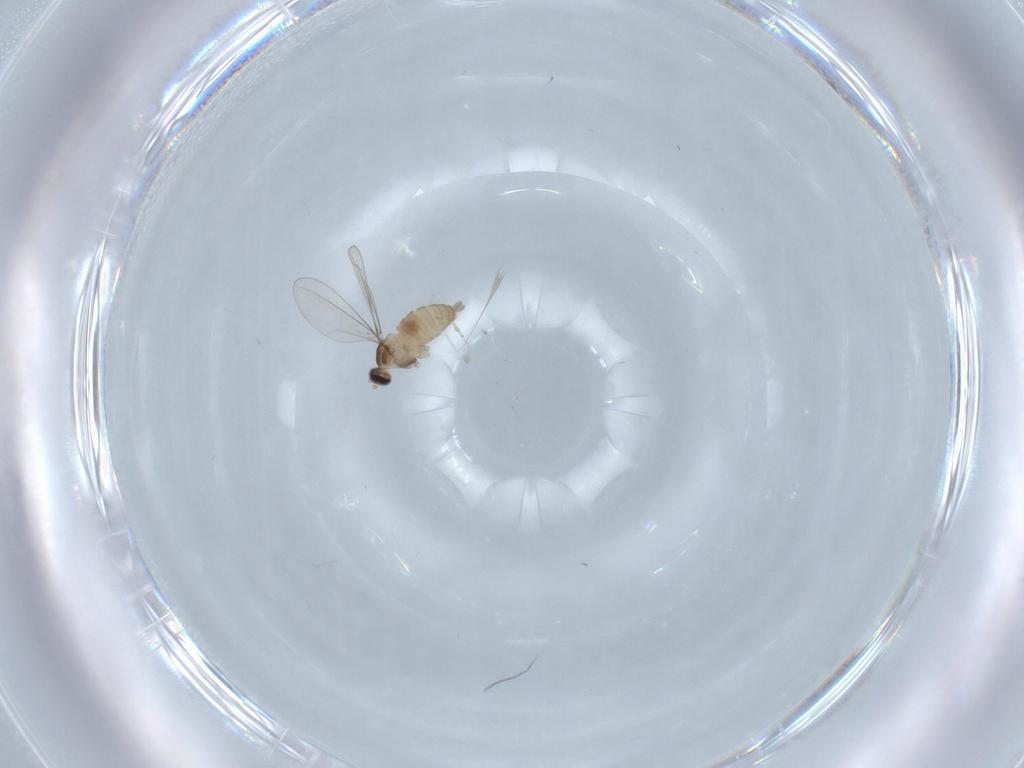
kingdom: Animalia
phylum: Arthropoda
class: Insecta
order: Diptera
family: Cecidomyiidae
